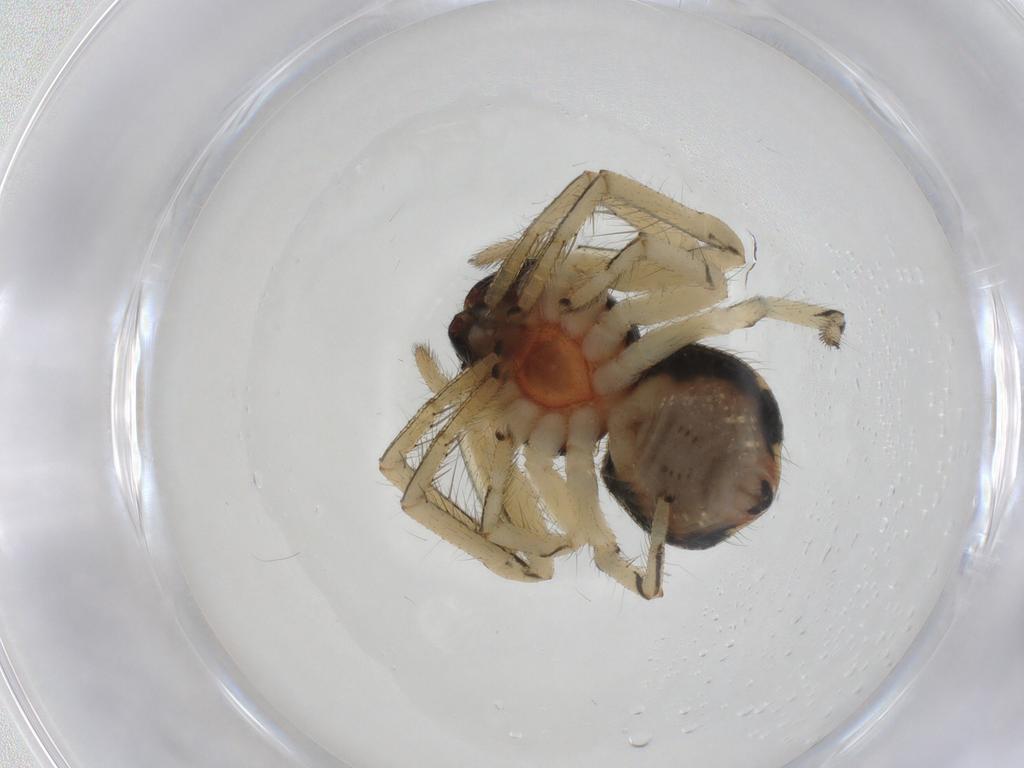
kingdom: Animalia
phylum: Arthropoda
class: Arachnida
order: Araneae
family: Thomisidae
